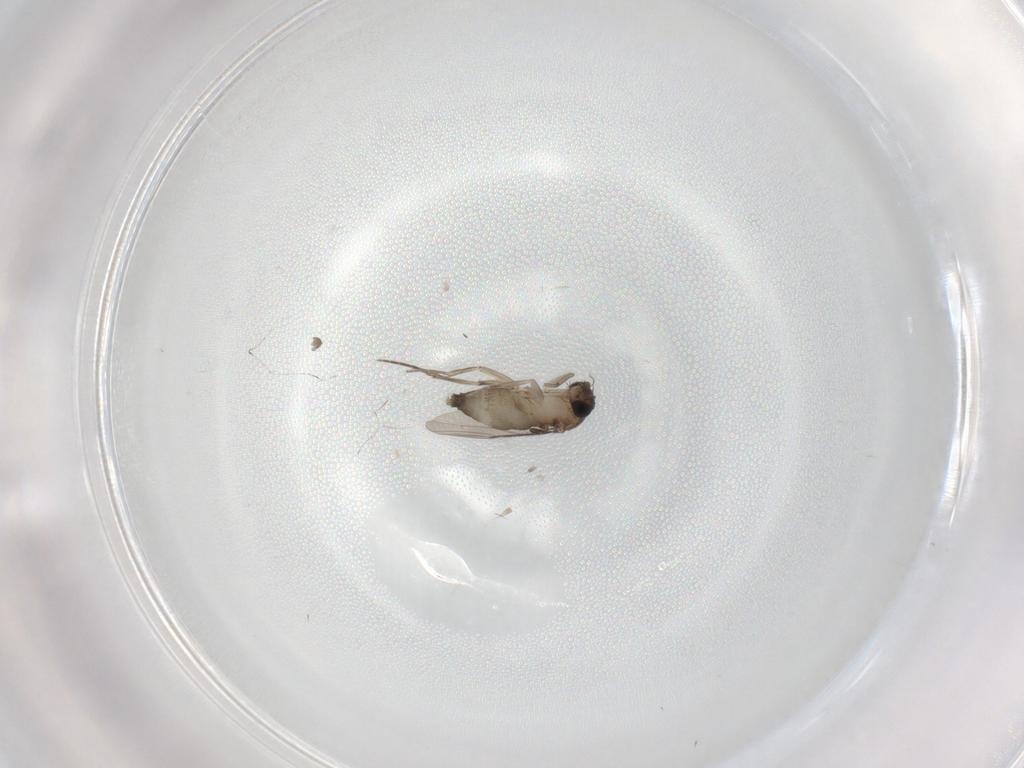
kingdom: Animalia
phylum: Arthropoda
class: Insecta
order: Diptera
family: Phoridae
